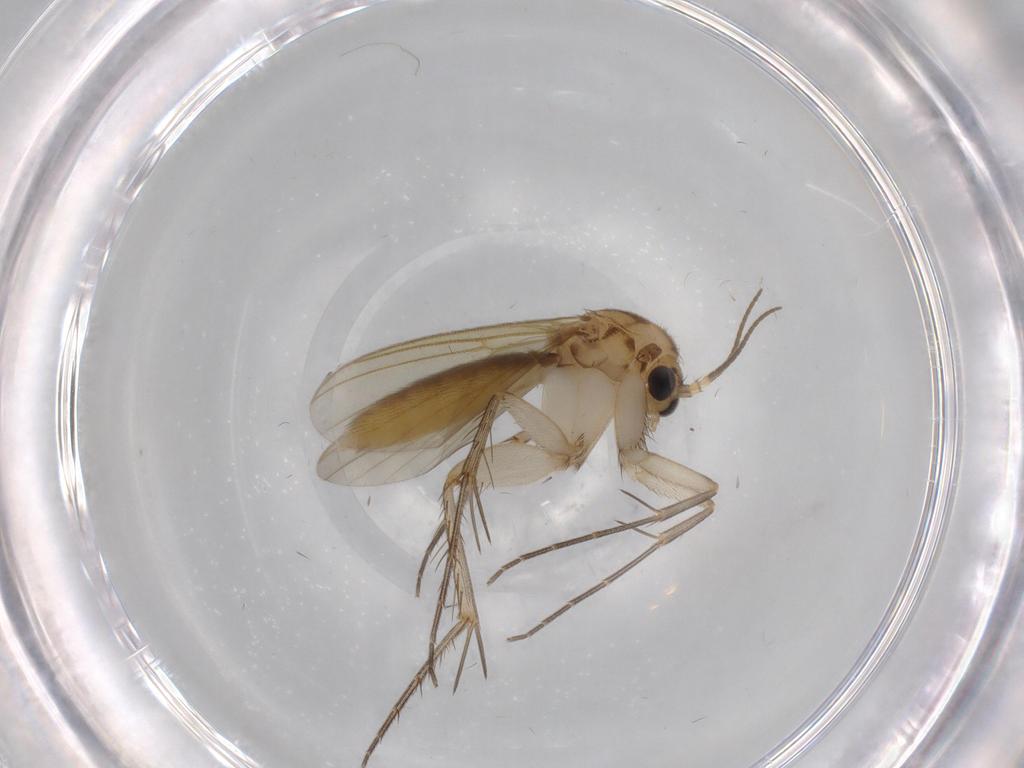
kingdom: Animalia
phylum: Arthropoda
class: Insecta
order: Diptera
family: Mycetophilidae
